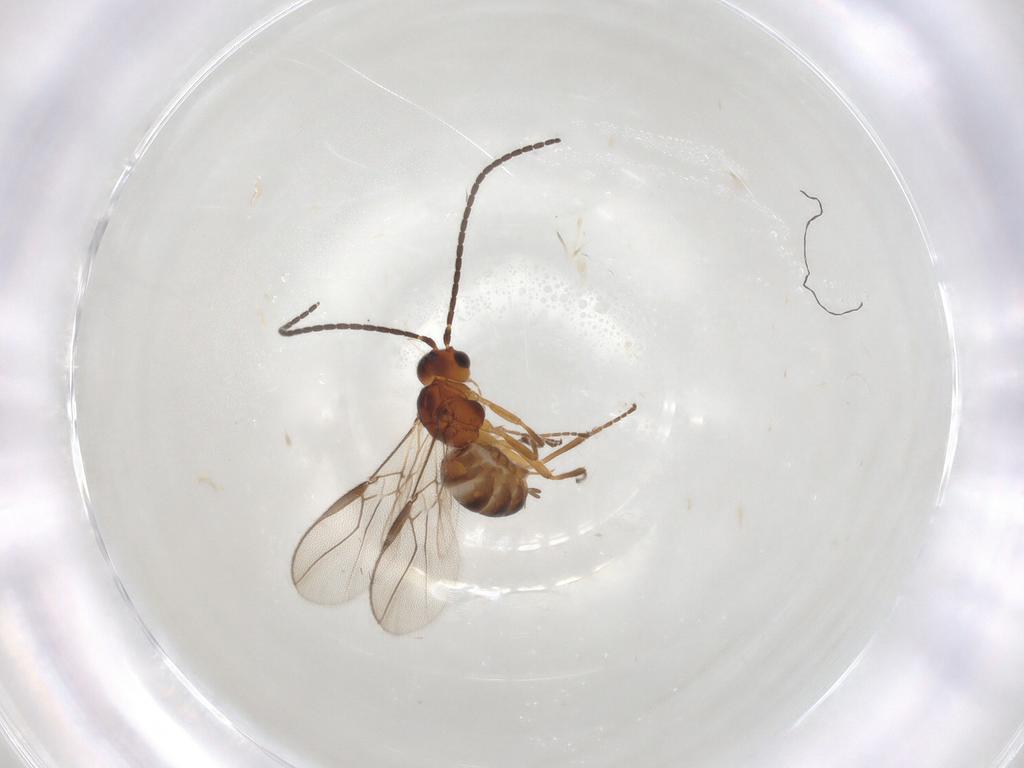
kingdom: Animalia
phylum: Arthropoda
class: Insecta
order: Hymenoptera
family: Braconidae
